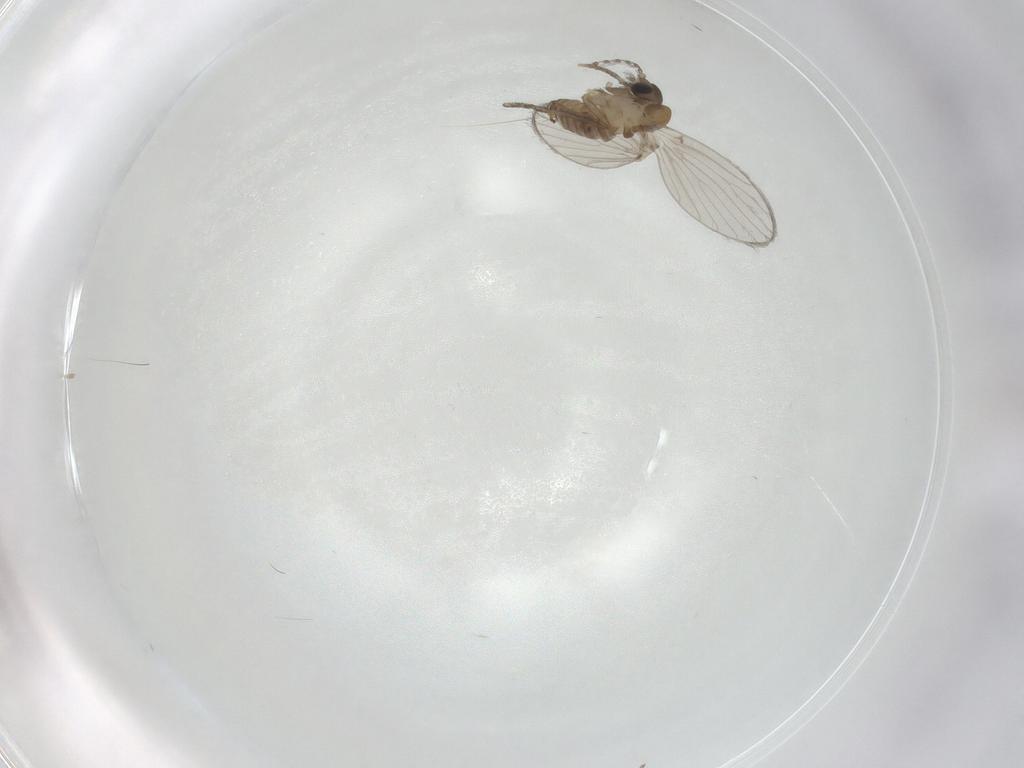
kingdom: Animalia
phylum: Arthropoda
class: Insecta
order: Diptera
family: Psychodidae
